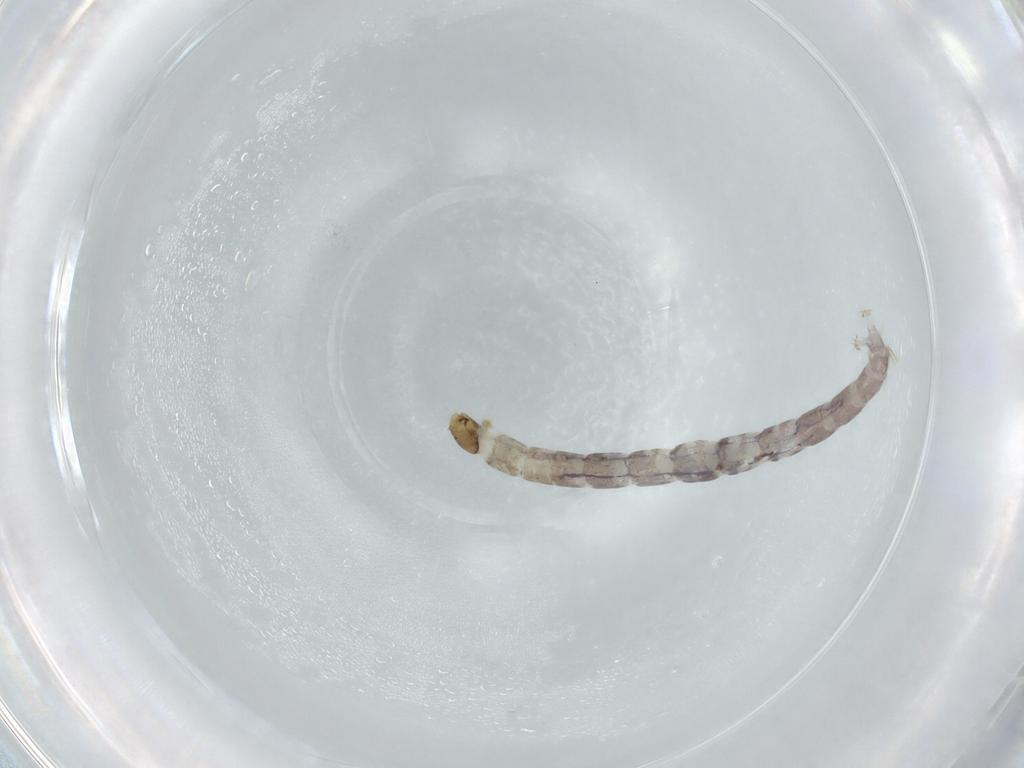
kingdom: Animalia
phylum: Arthropoda
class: Insecta
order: Diptera
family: Chironomidae
